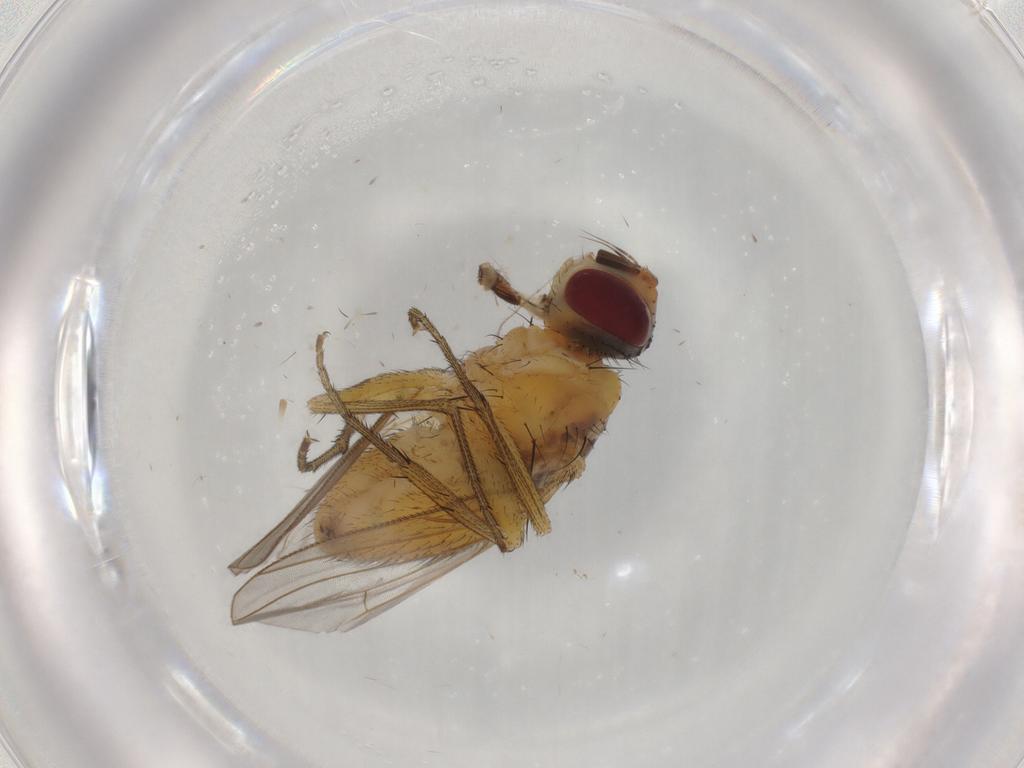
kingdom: Animalia
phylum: Arthropoda
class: Insecta
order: Diptera
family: Muscidae
